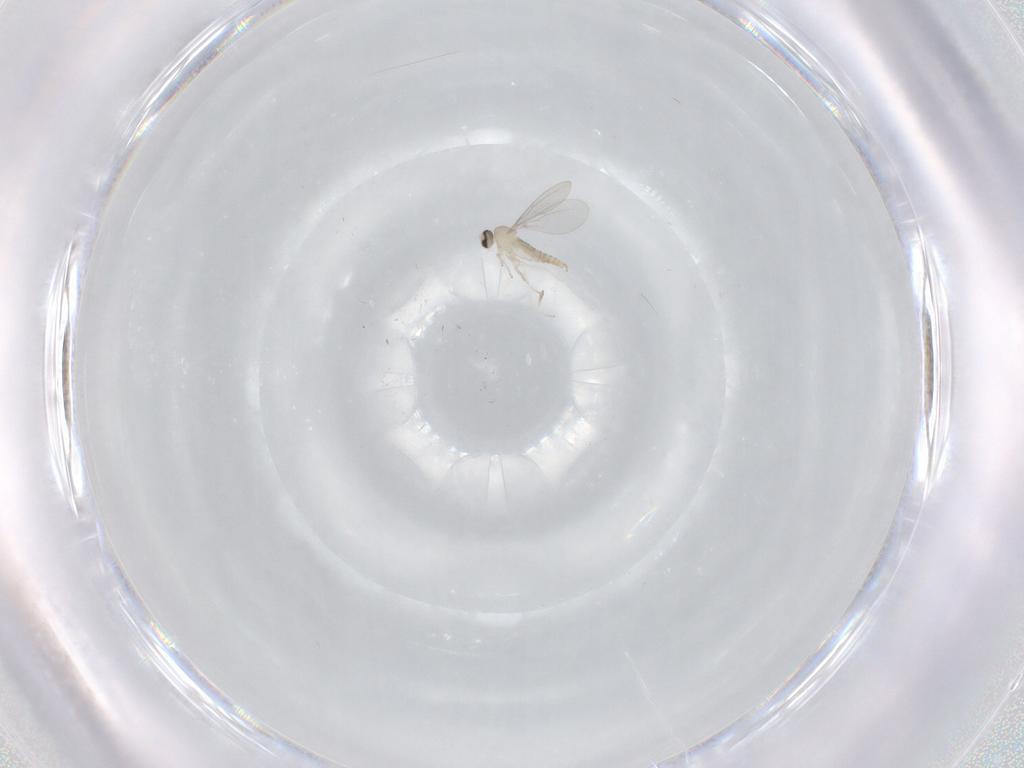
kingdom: Animalia
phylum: Arthropoda
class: Insecta
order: Diptera
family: Cecidomyiidae
